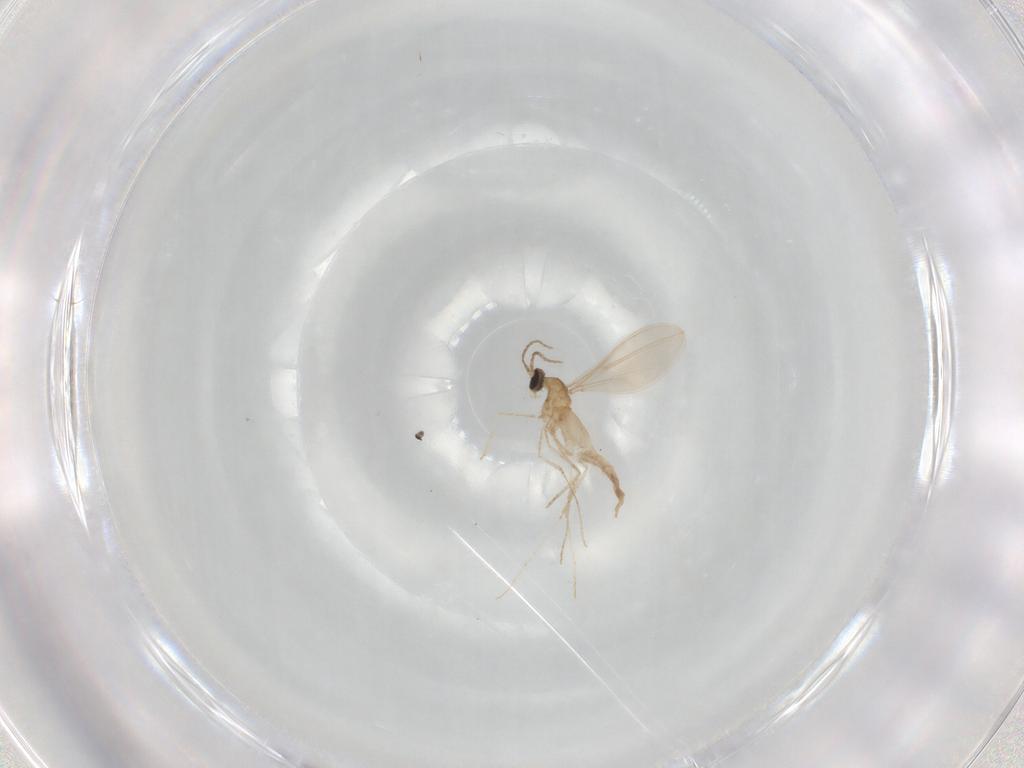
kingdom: Animalia
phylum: Arthropoda
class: Insecta
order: Diptera
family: Cecidomyiidae
